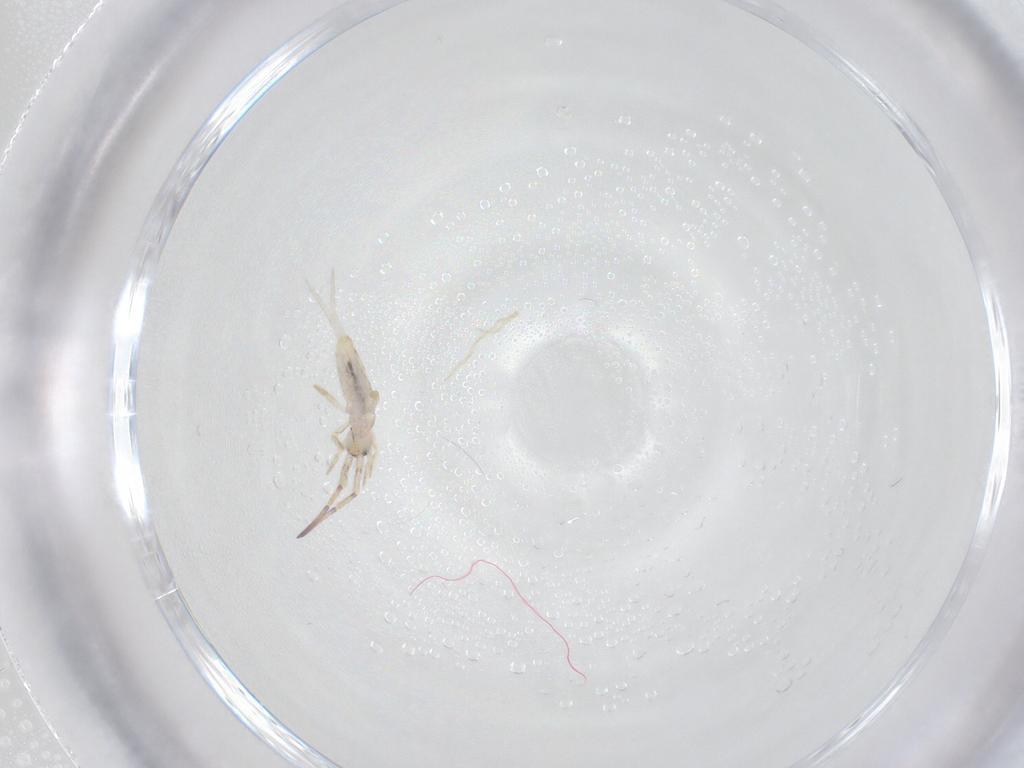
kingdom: Animalia
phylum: Arthropoda
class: Collembola
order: Entomobryomorpha
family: Entomobryidae
